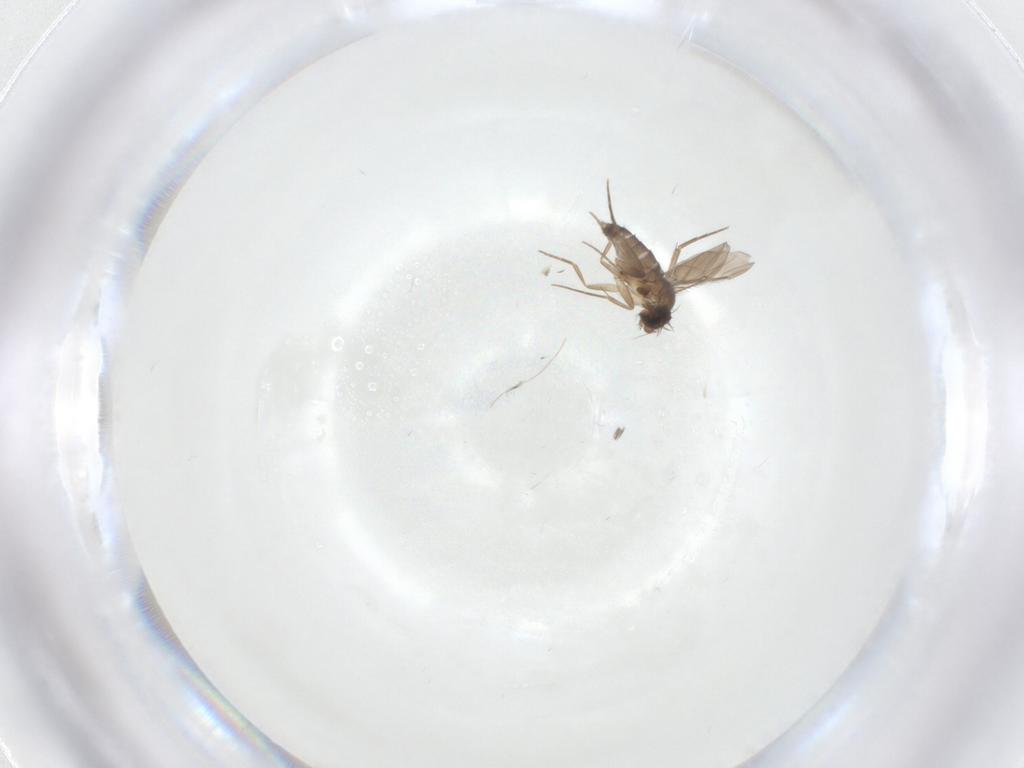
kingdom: Animalia
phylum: Arthropoda
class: Insecta
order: Diptera
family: Phoridae
